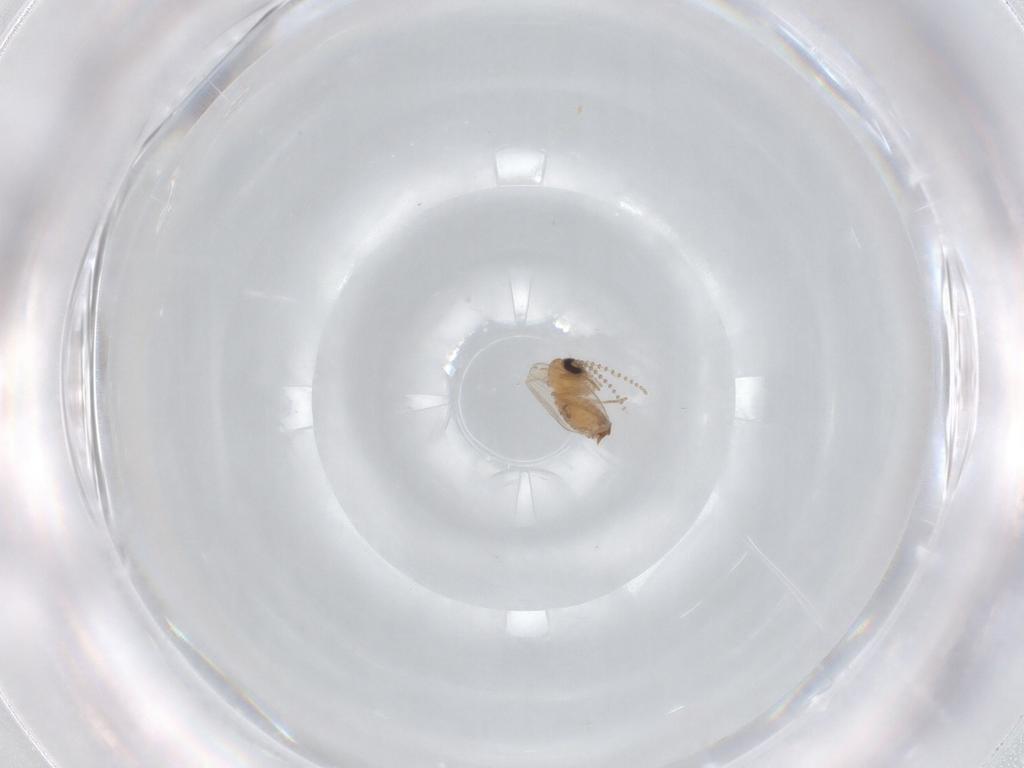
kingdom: Animalia
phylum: Arthropoda
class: Insecta
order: Diptera
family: Psychodidae
